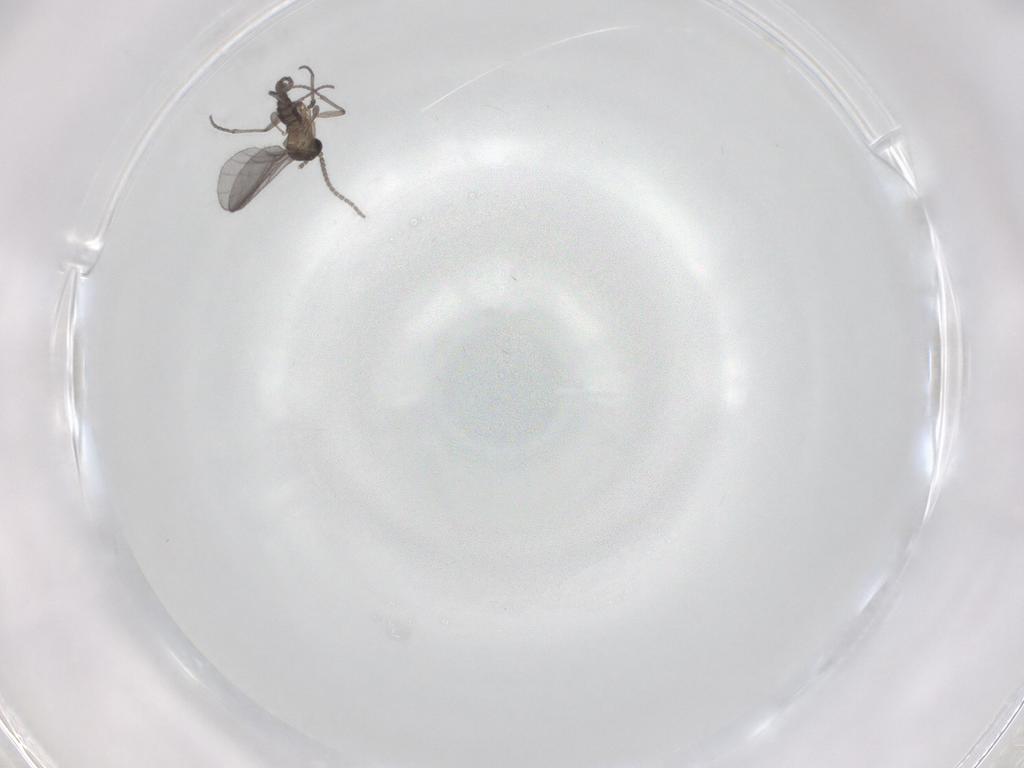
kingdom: Animalia
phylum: Arthropoda
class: Insecta
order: Diptera
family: Sciaridae
